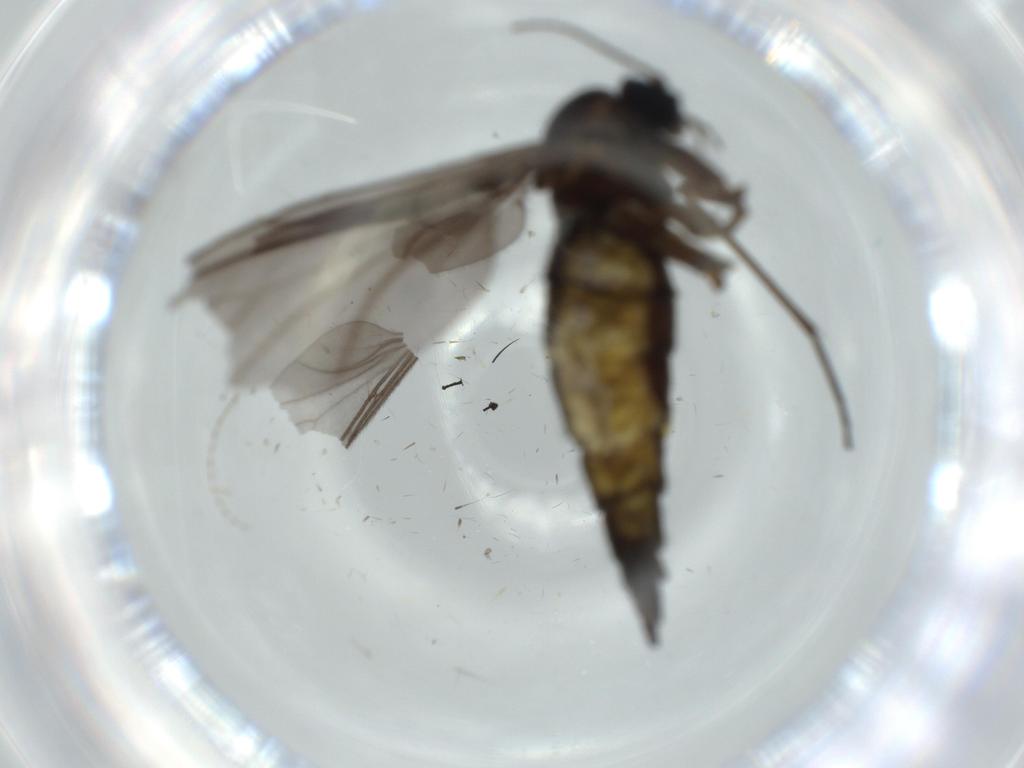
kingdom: Animalia
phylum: Arthropoda
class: Insecta
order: Diptera
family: Sciaridae
